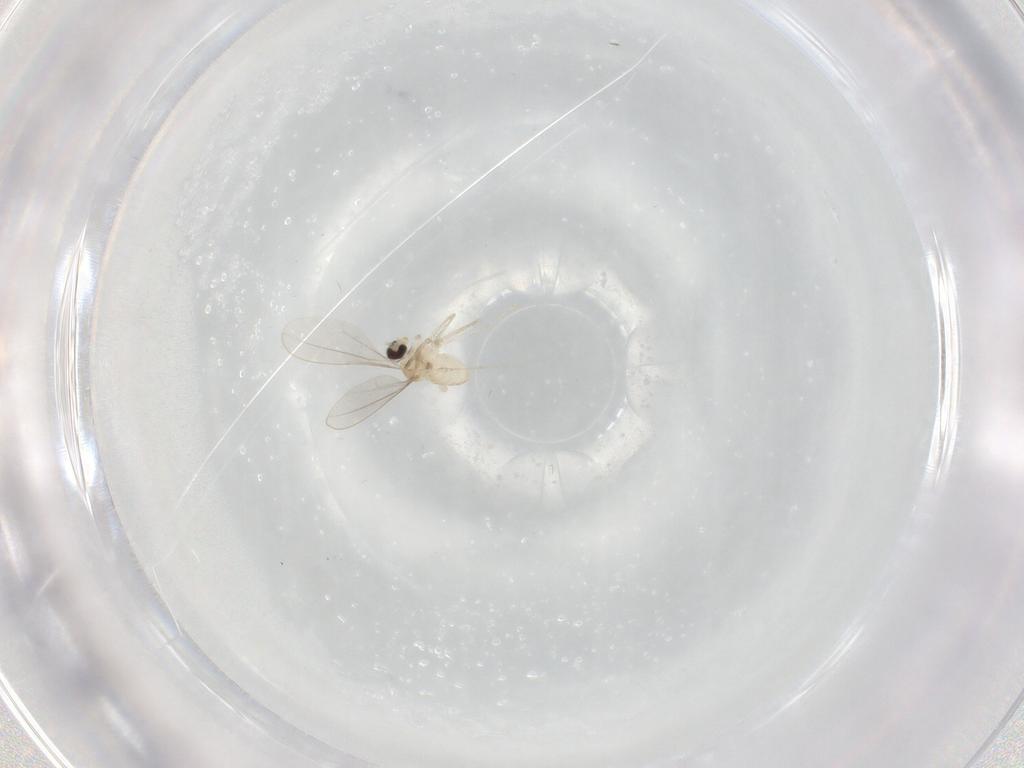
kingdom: Animalia
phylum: Arthropoda
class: Insecta
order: Diptera
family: Cecidomyiidae
